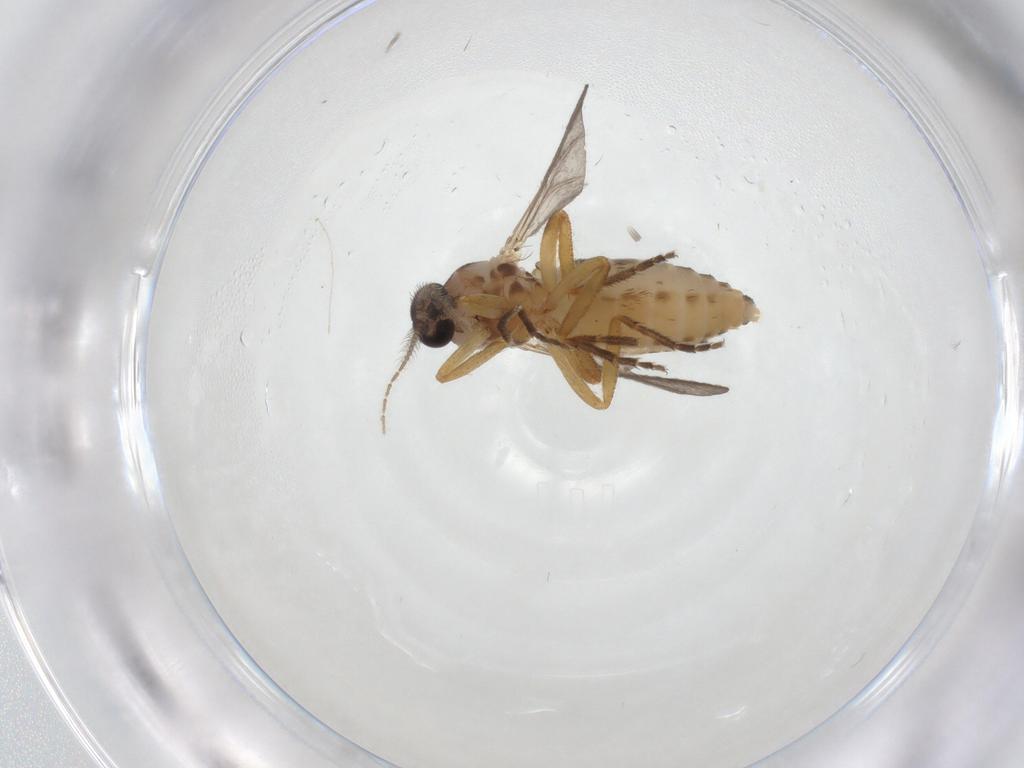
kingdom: Animalia
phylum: Arthropoda
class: Insecta
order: Diptera
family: Ceratopogonidae
